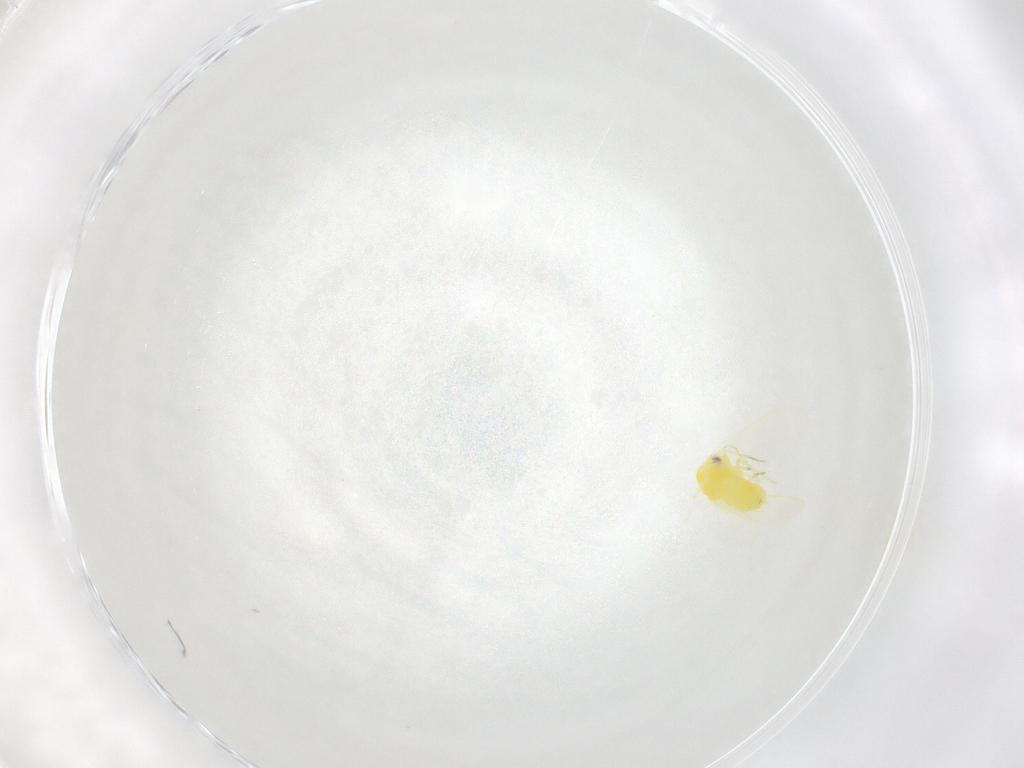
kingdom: Animalia
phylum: Arthropoda
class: Insecta
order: Hemiptera
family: Aleyrodidae
